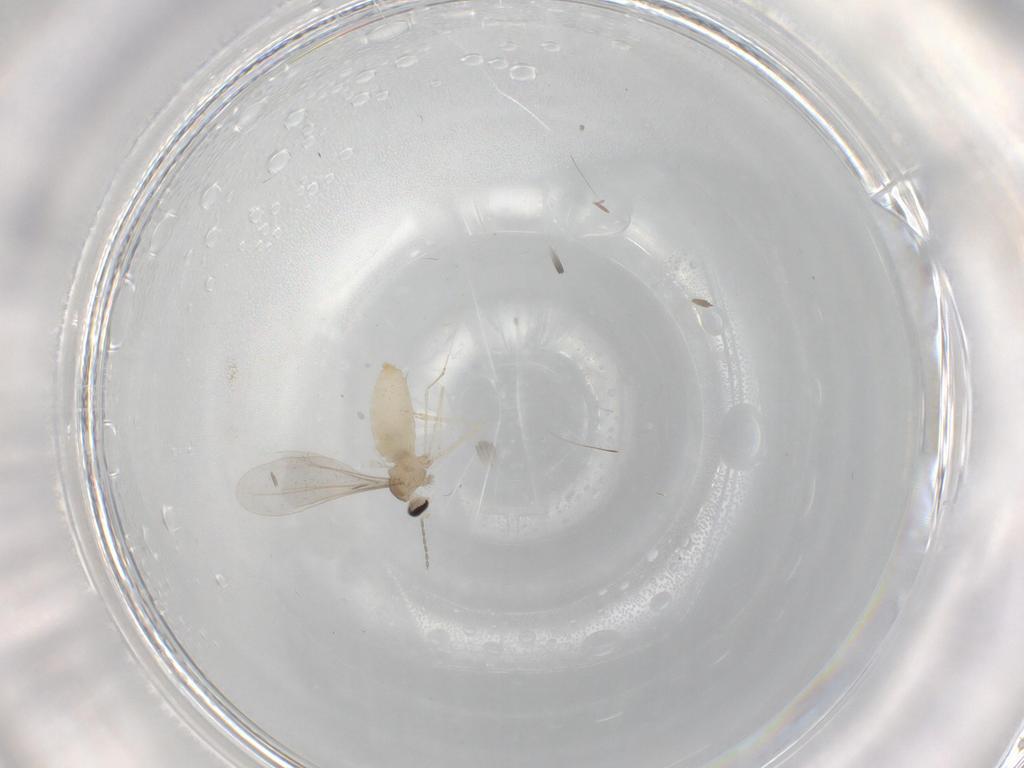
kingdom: Animalia
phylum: Arthropoda
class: Insecta
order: Diptera
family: Cecidomyiidae
